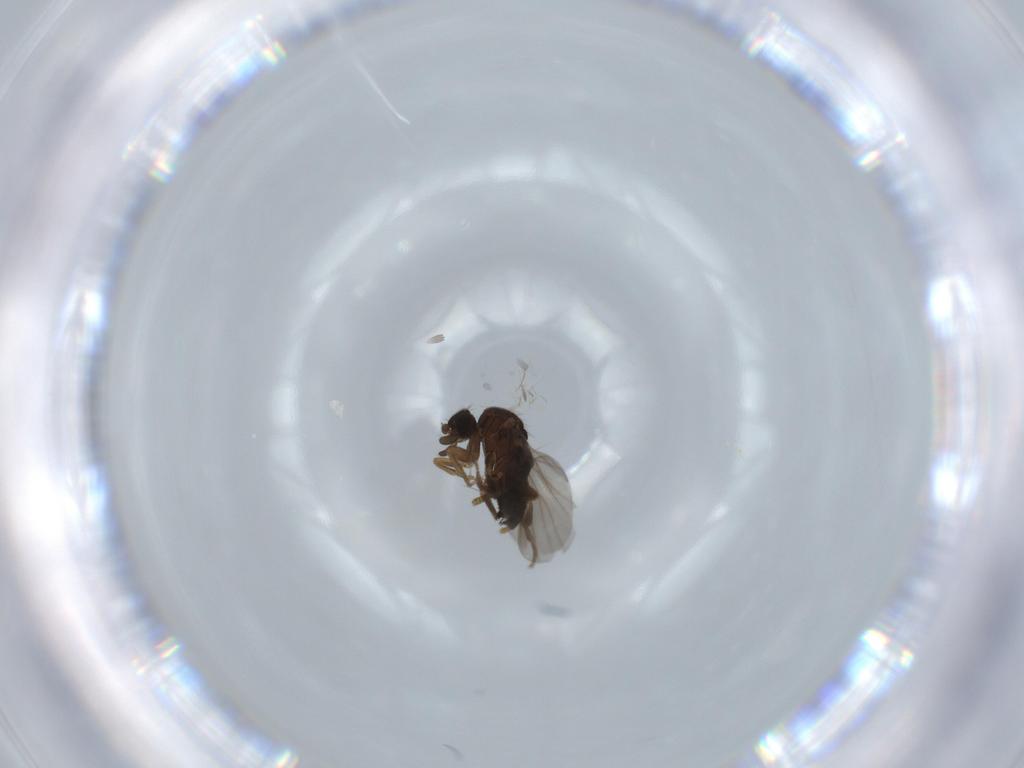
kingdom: Animalia
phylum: Arthropoda
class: Insecta
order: Diptera
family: Phoridae
